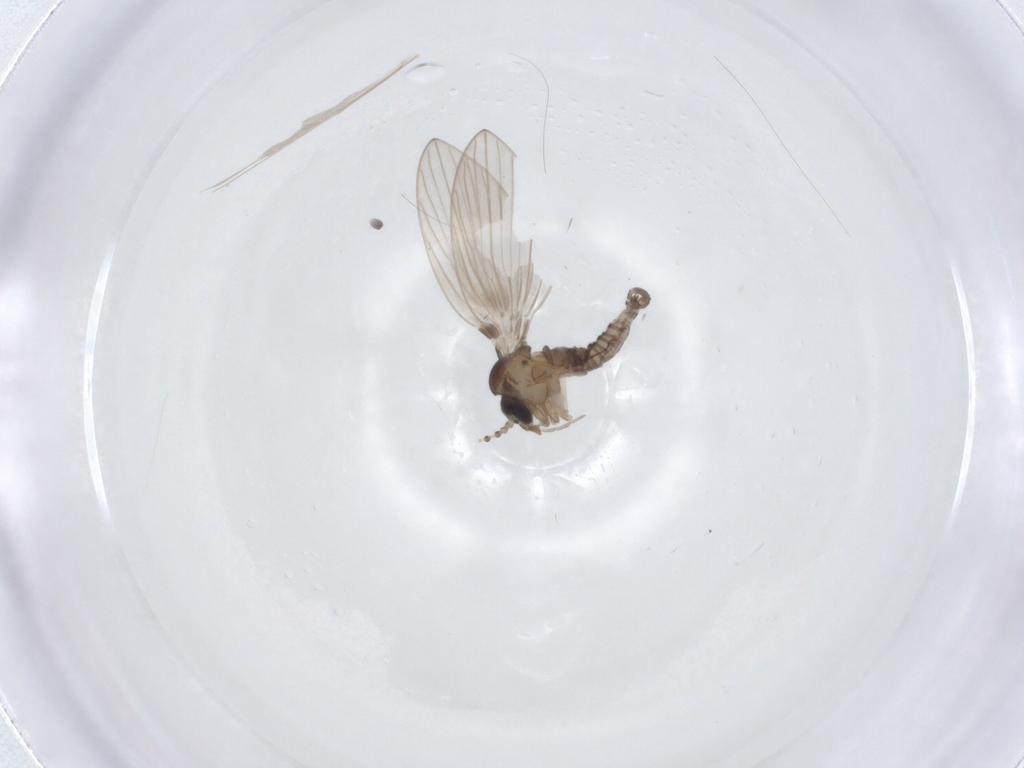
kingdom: Animalia
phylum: Arthropoda
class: Insecta
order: Diptera
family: Psychodidae
